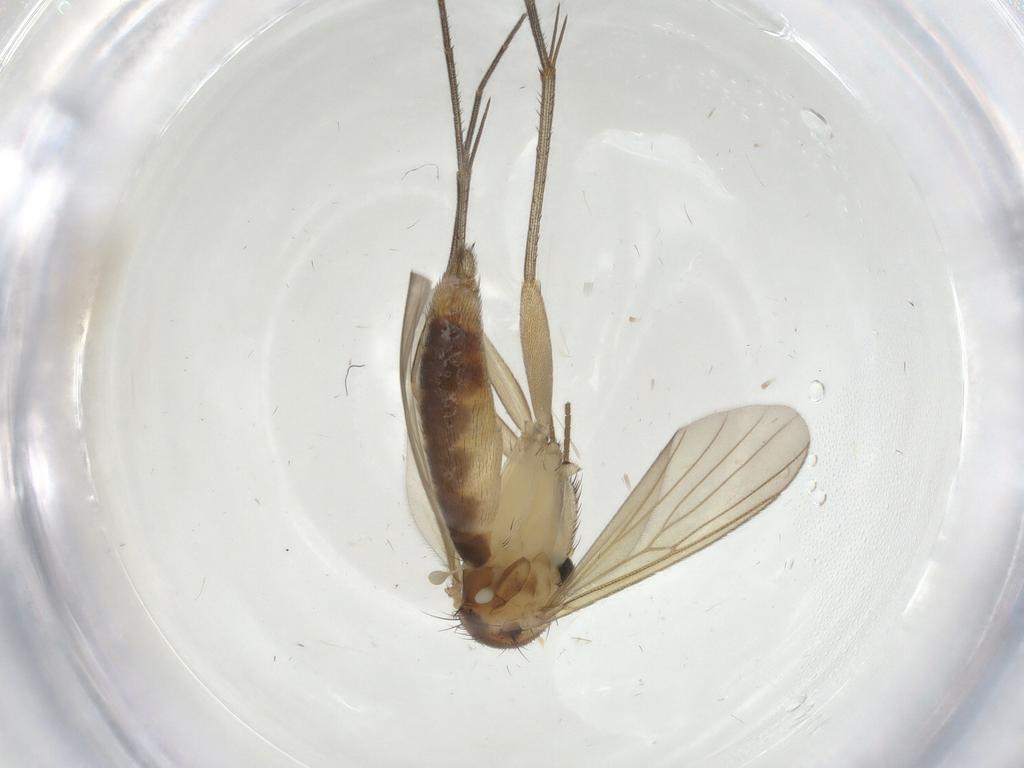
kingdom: Animalia
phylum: Arthropoda
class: Insecta
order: Diptera
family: Mycetophilidae
